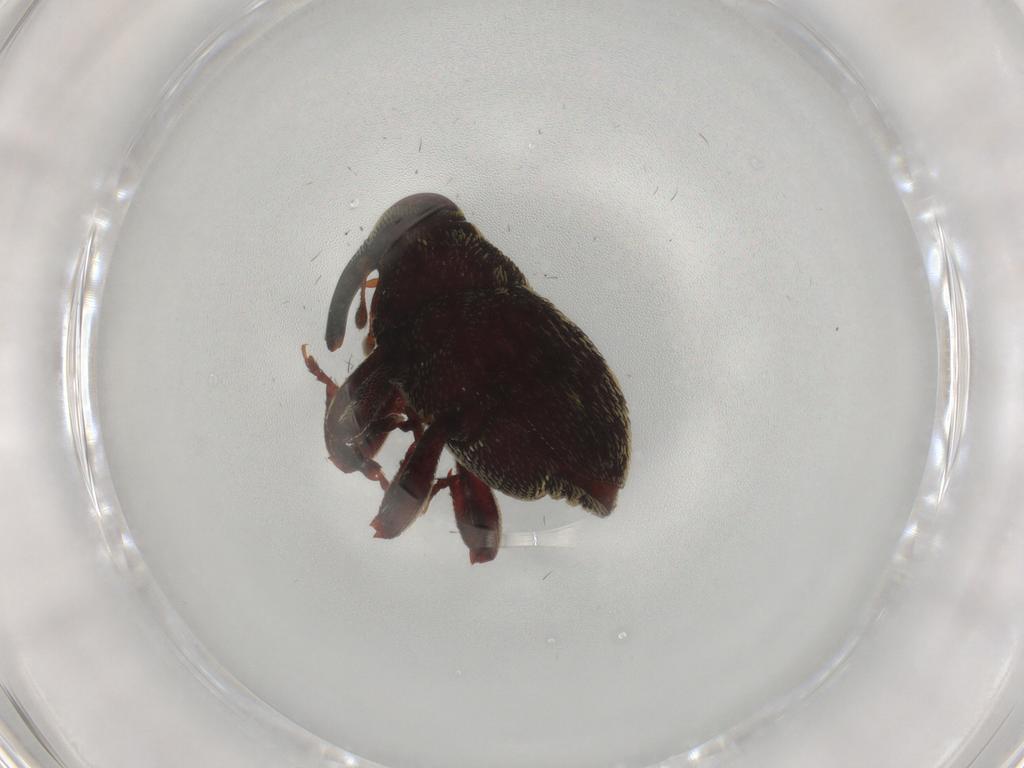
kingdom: Animalia
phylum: Arthropoda
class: Insecta
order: Coleoptera
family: Curculionidae
